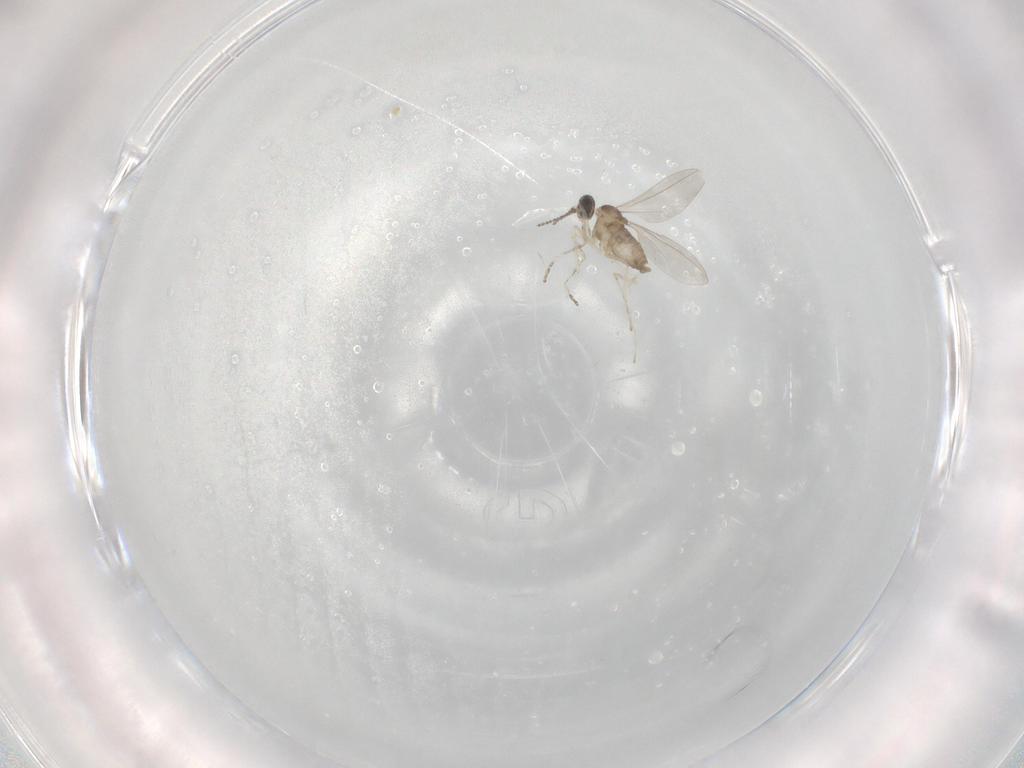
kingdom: Animalia
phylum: Arthropoda
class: Insecta
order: Diptera
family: Cecidomyiidae
